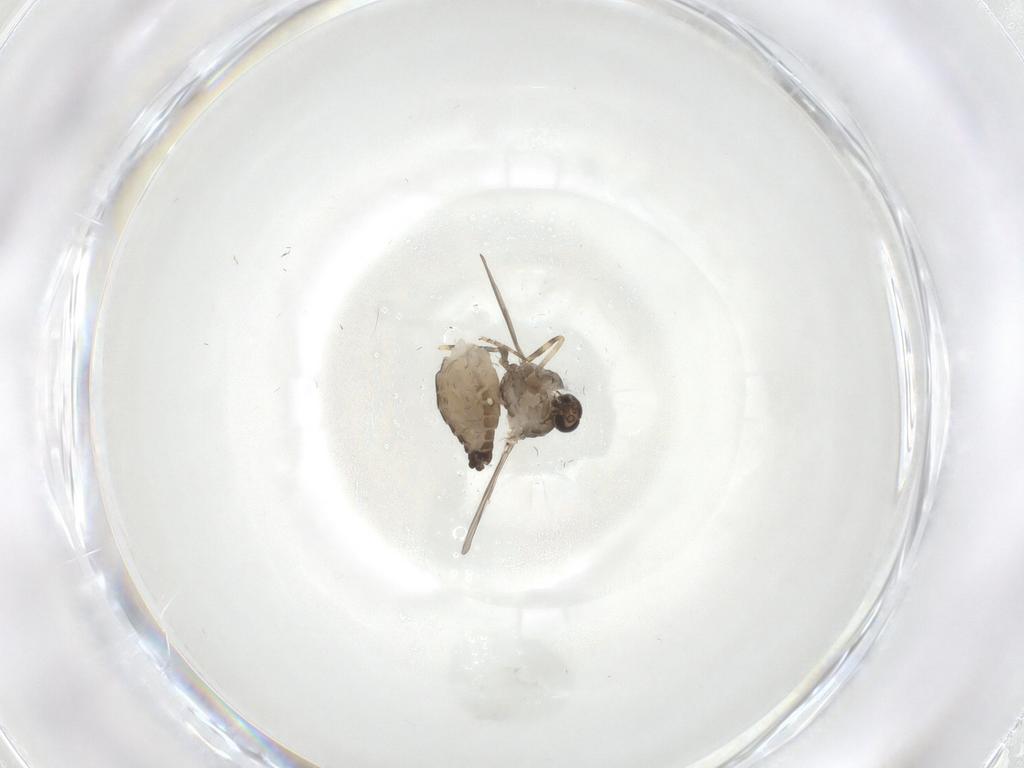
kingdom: Animalia
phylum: Arthropoda
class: Insecta
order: Diptera
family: Ceratopogonidae
